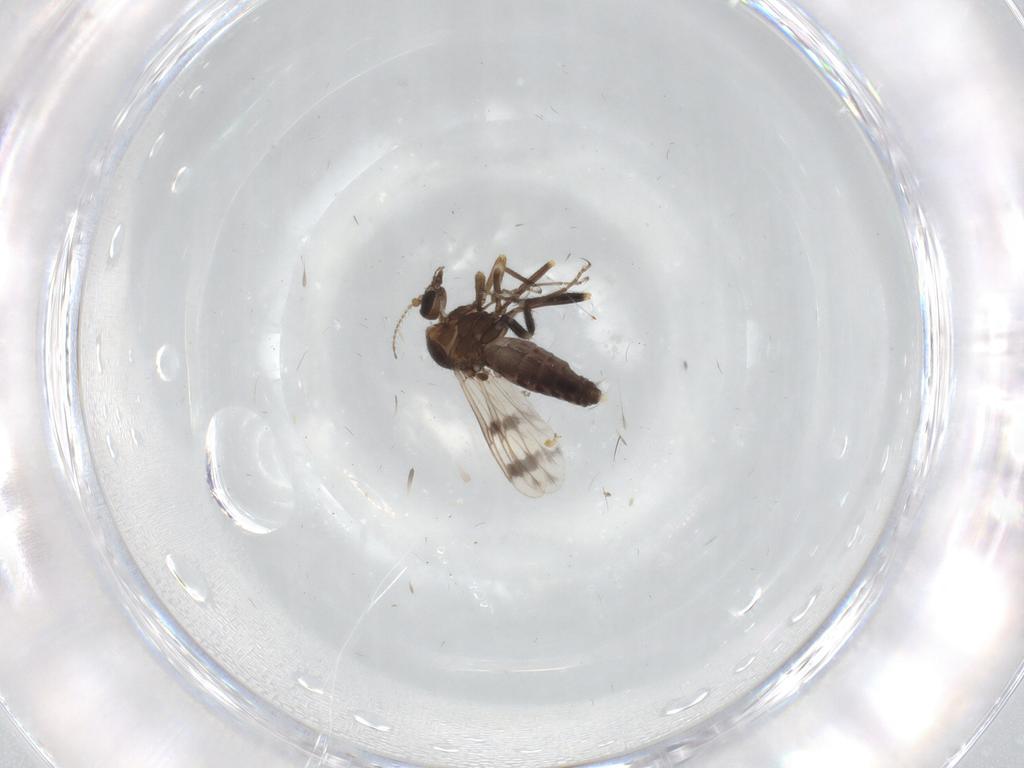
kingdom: Animalia
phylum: Arthropoda
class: Insecta
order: Diptera
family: Ceratopogonidae
